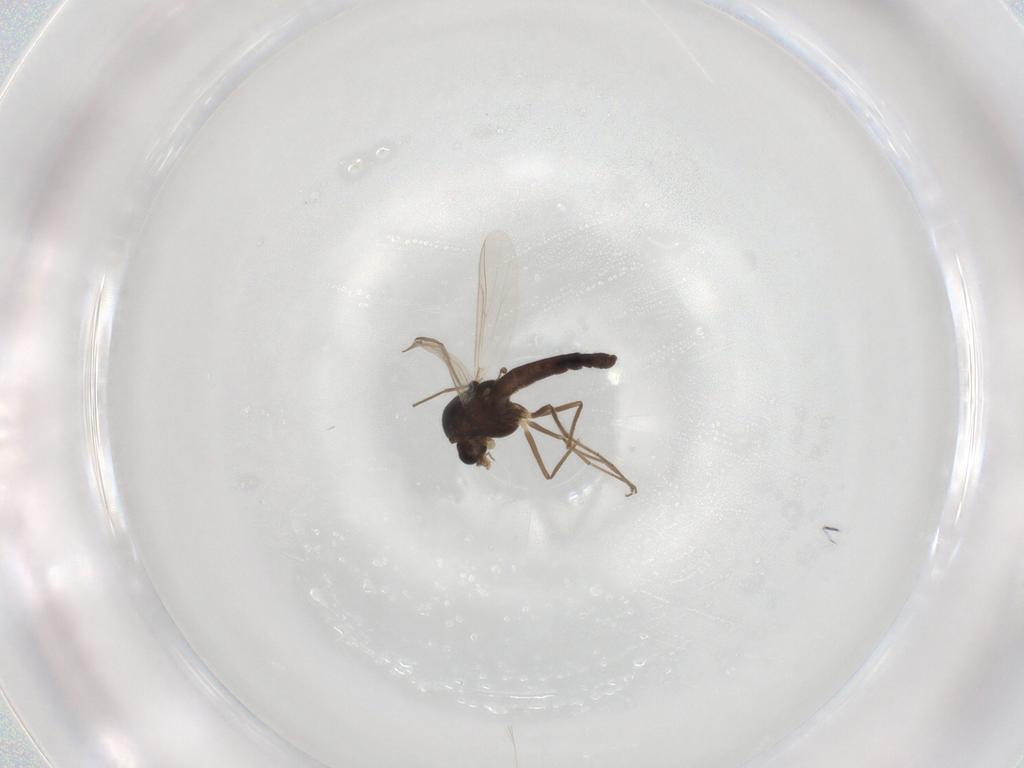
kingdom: Animalia
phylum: Arthropoda
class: Insecta
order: Diptera
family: Chironomidae
